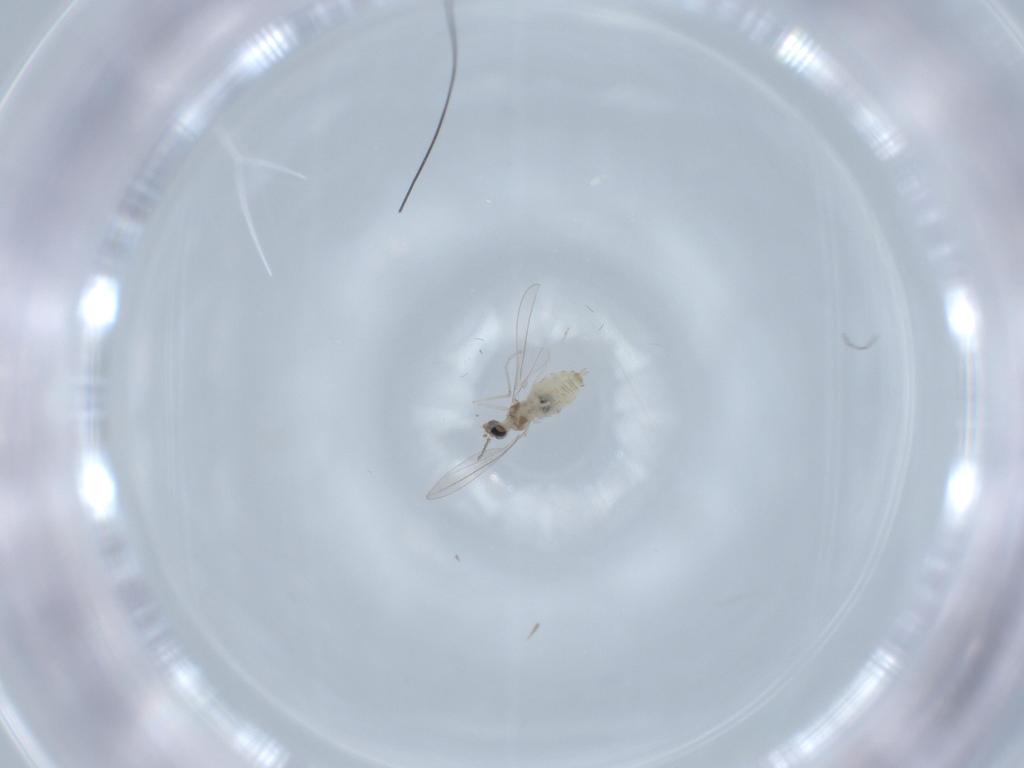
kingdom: Animalia
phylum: Arthropoda
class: Insecta
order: Diptera
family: Cecidomyiidae
